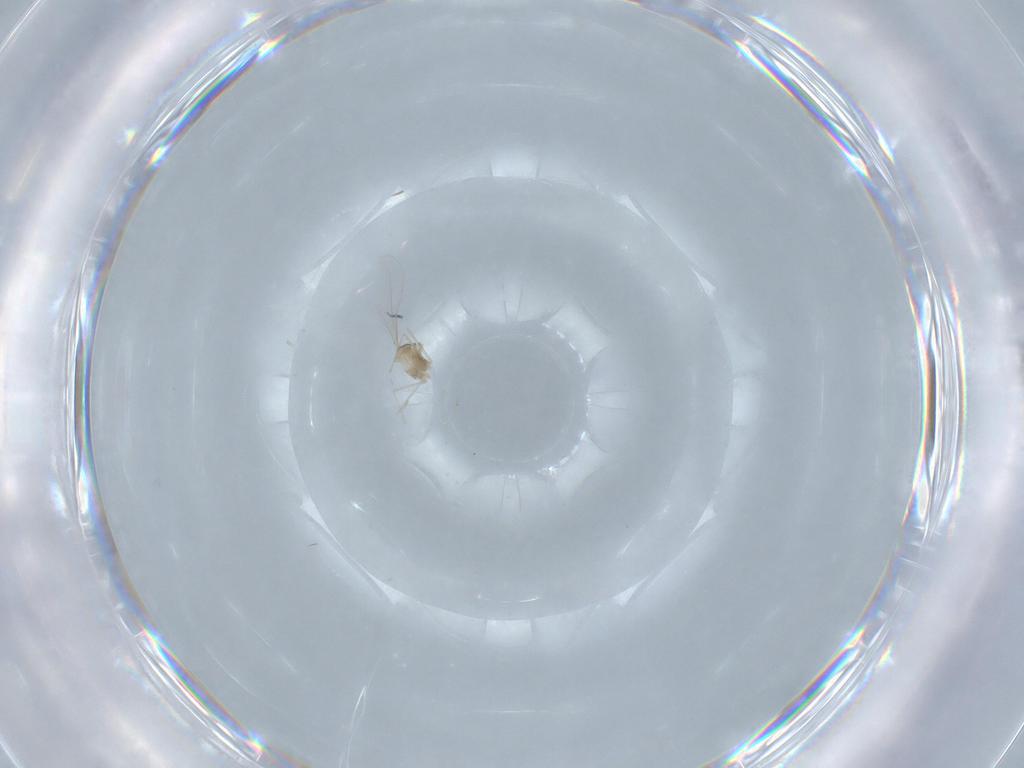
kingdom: Animalia
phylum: Arthropoda
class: Insecta
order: Diptera
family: Cecidomyiidae
